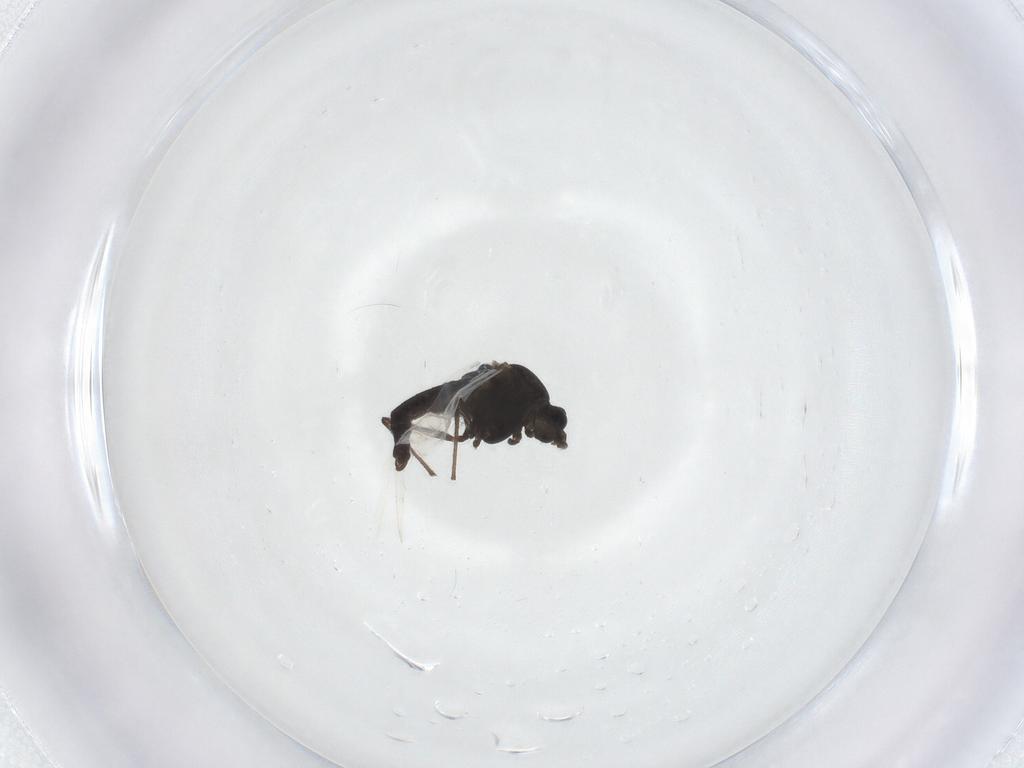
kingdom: Animalia
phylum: Arthropoda
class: Insecta
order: Diptera
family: Chironomidae
